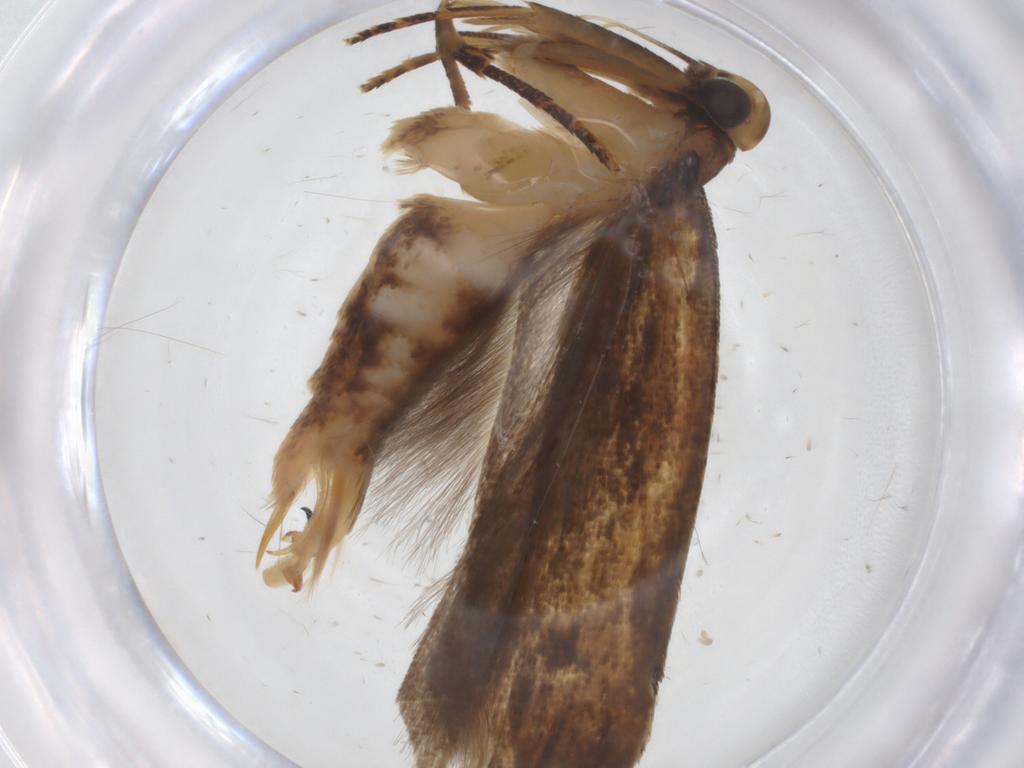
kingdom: Animalia
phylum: Arthropoda
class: Insecta
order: Lepidoptera
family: Gelechiidae
